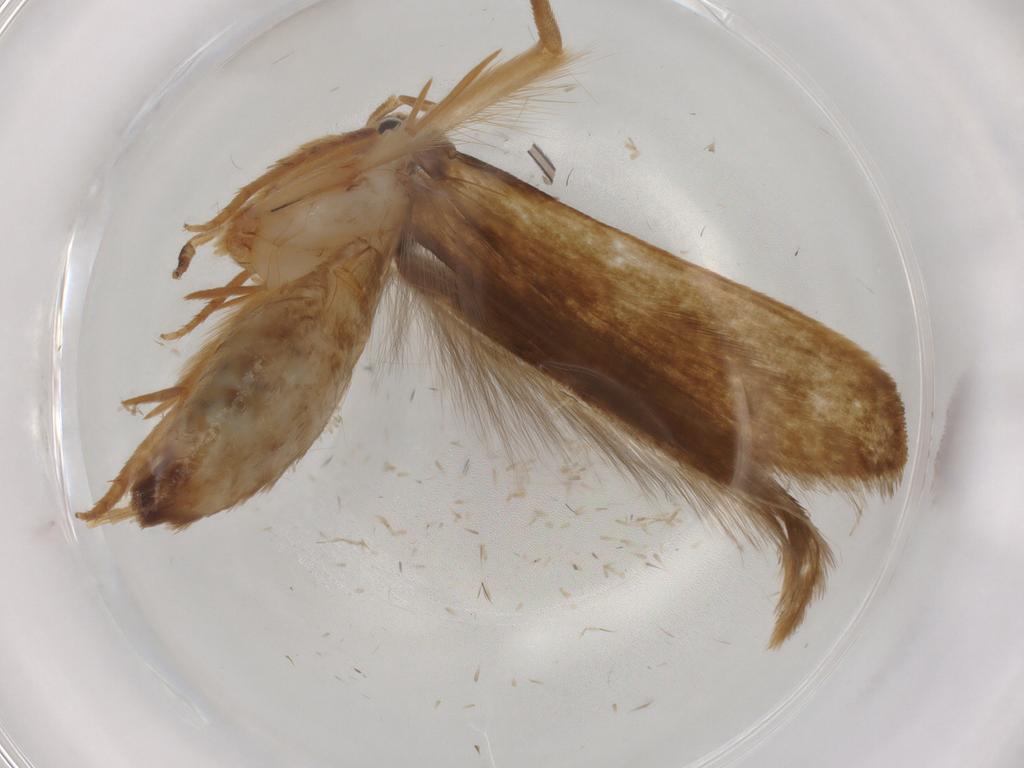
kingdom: Animalia
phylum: Arthropoda
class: Insecta
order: Lepidoptera
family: Tineidae
